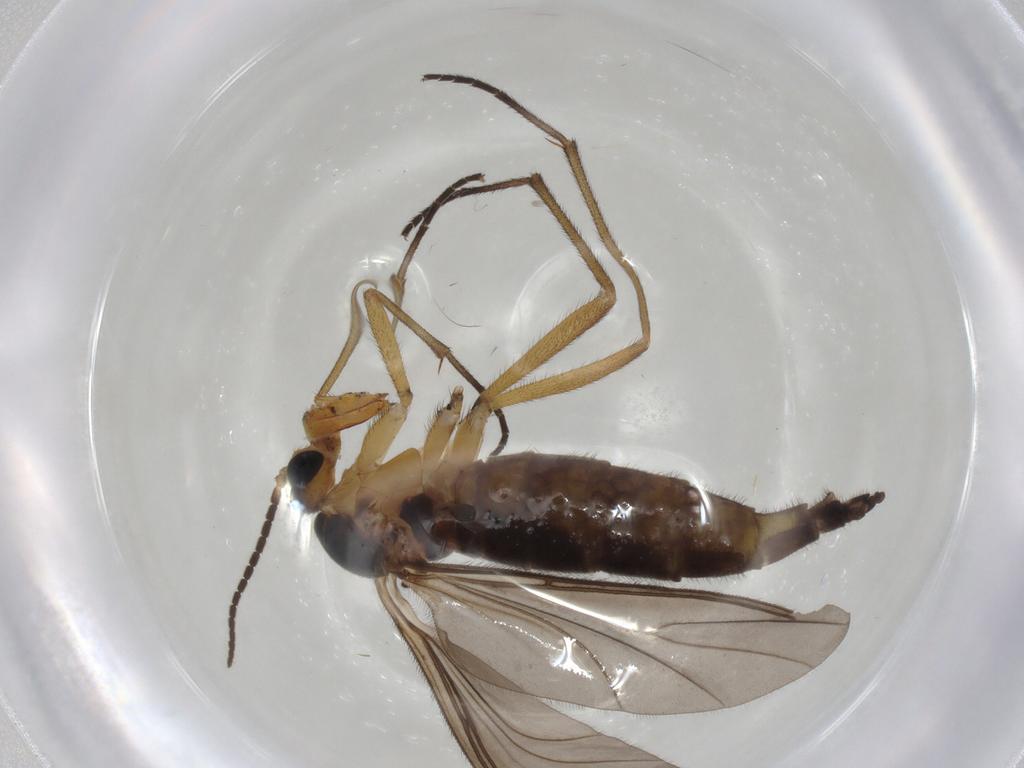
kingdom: Animalia
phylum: Arthropoda
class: Insecta
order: Diptera
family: Sciaridae
